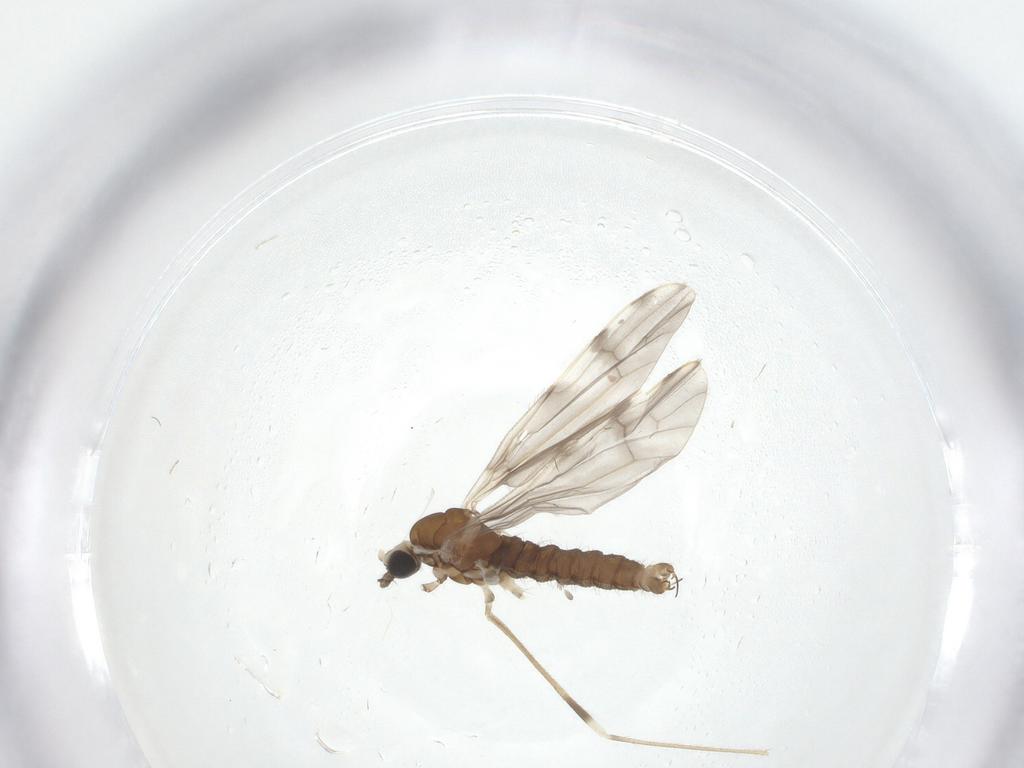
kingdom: Animalia
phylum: Arthropoda
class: Insecta
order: Diptera
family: Limoniidae
